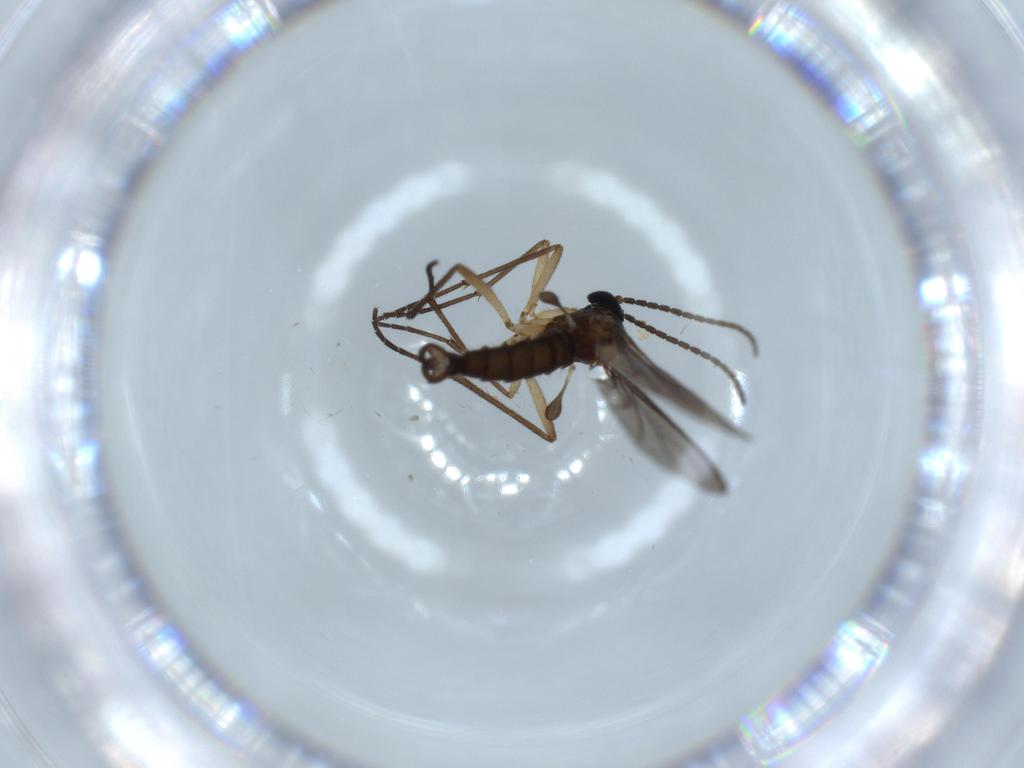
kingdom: Animalia
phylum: Arthropoda
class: Insecta
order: Diptera
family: Sciaridae
